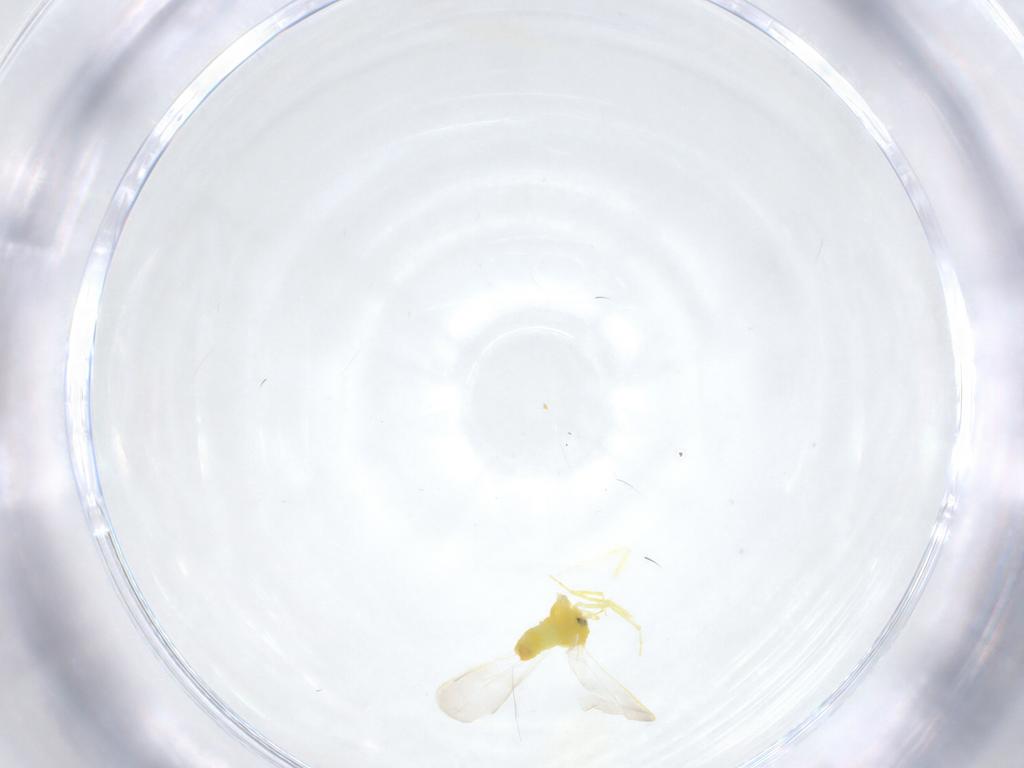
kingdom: Animalia
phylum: Arthropoda
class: Insecta
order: Hemiptera
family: Aleyrodidae
